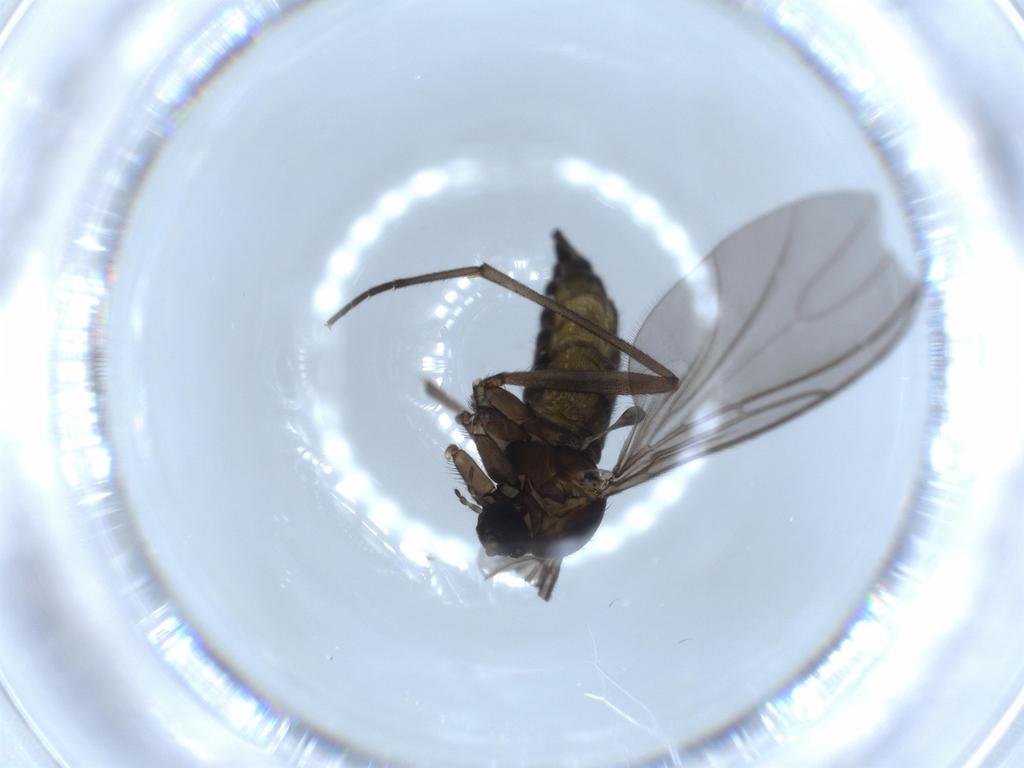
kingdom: Animalia
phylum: Arthropoda
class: Insecta
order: Diptera
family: Sciaridae
